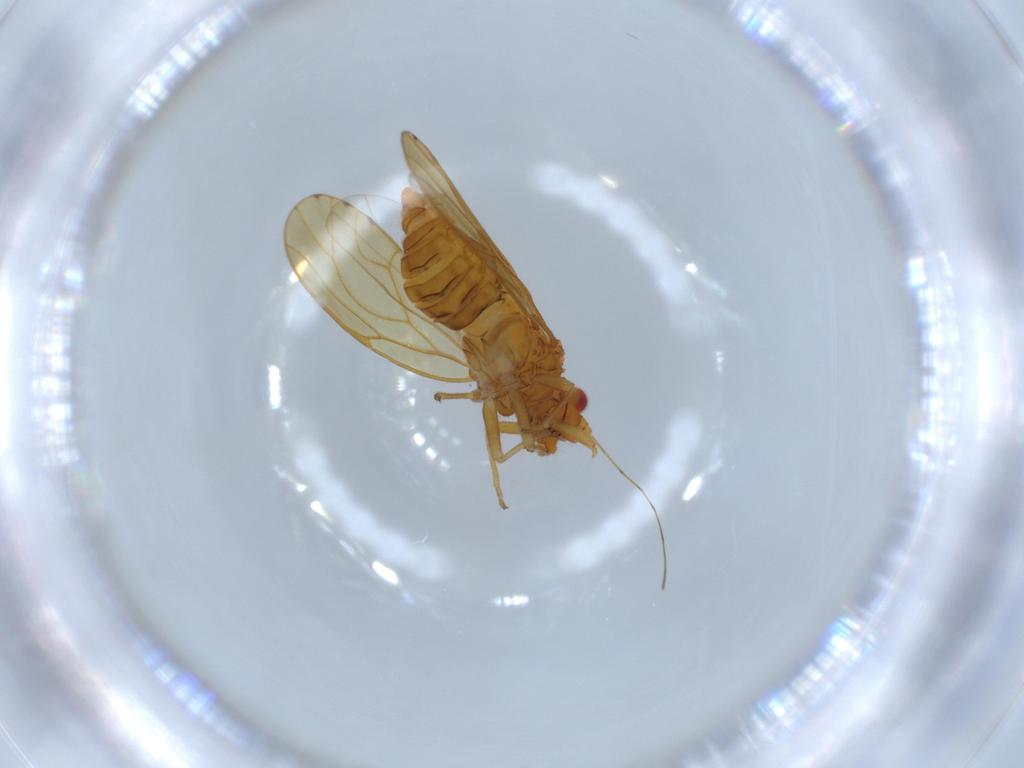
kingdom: Animalia
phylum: Arthropoda
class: Insecta
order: Hemiptera
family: Psylloidea_incertae_sedis
